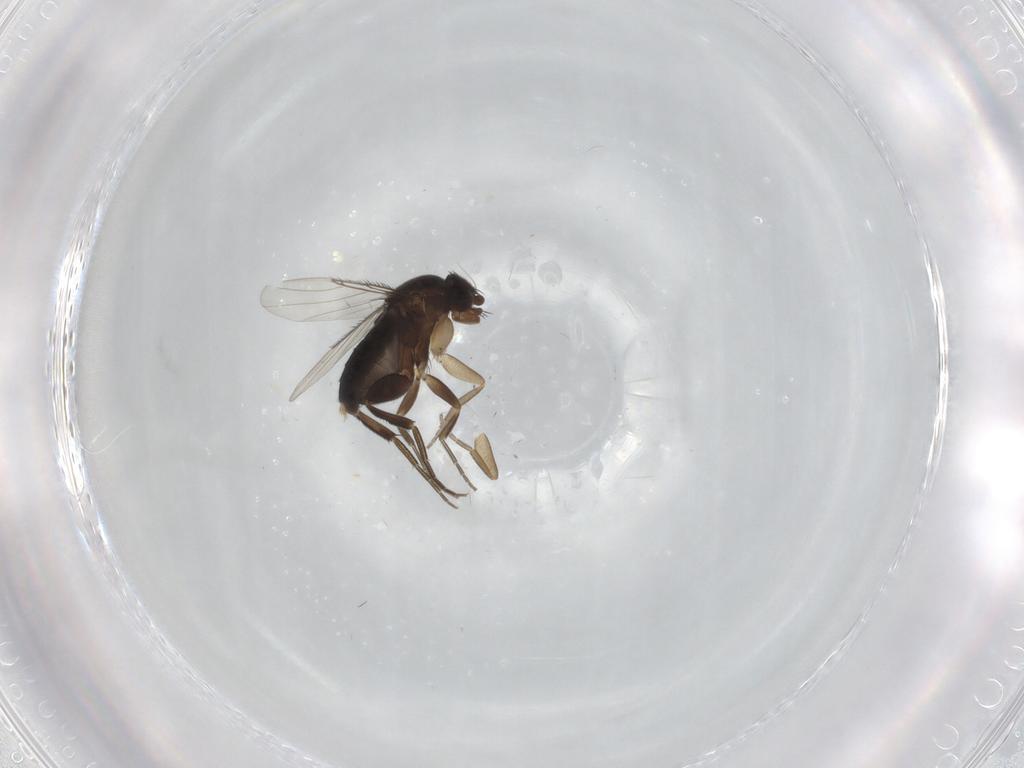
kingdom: Animalia
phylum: Arthropoda
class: Insecta
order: Diptera
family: Phoridae
